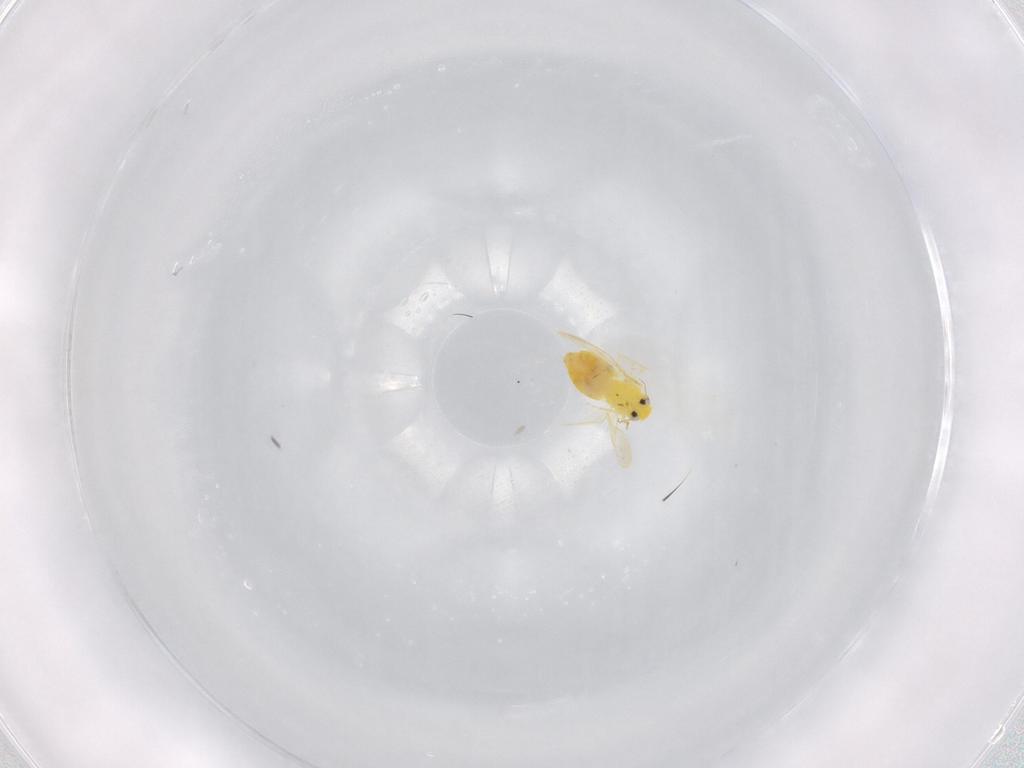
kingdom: Animalia
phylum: Arthropoda
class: Insecta
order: Hemiptera
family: Aleyrodidae
